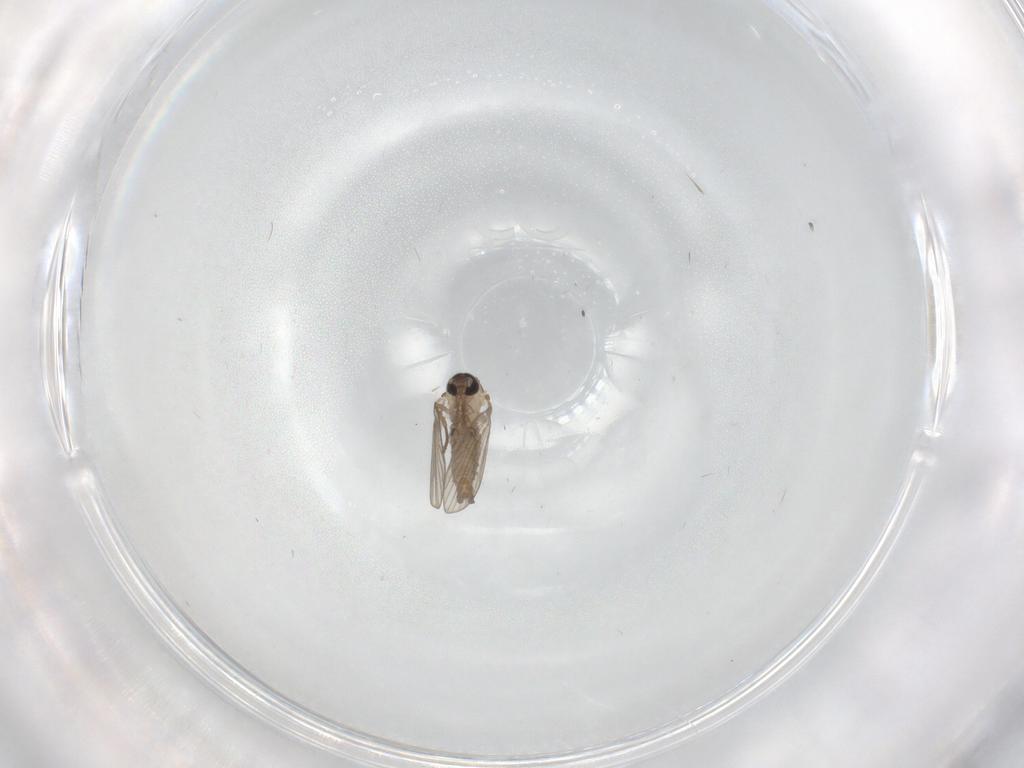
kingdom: Animalia
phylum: Arthropoda
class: Insecta
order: Diptera
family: Psychodidae
